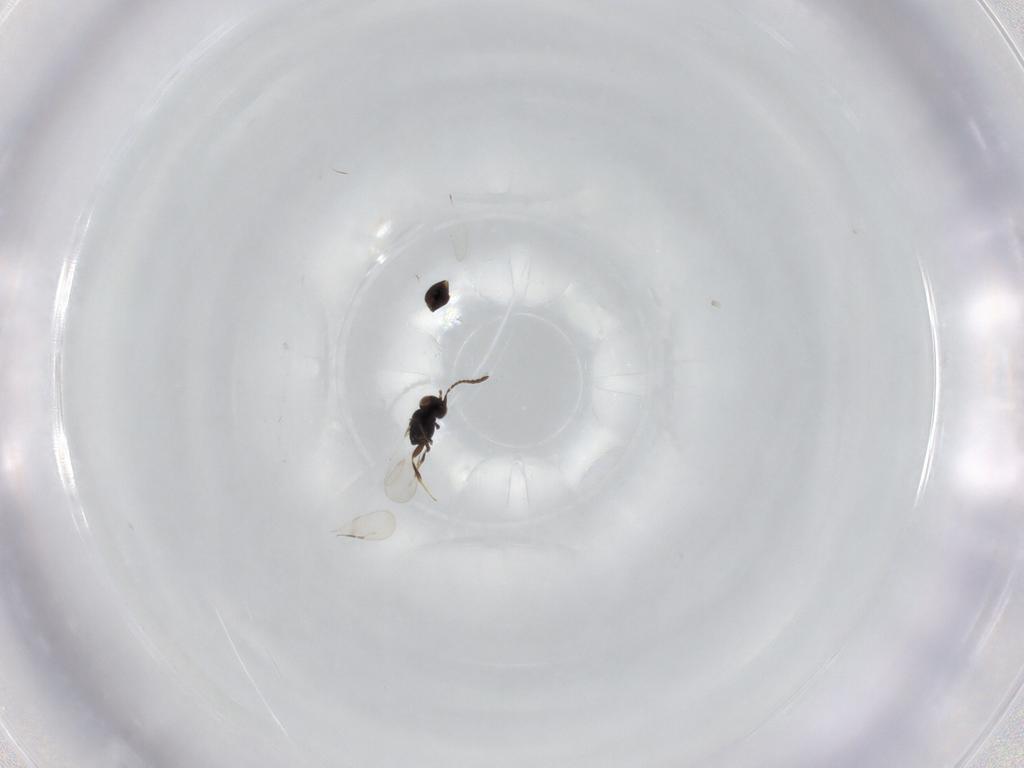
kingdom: Animalia
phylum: Arthropoda
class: Insecta
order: Hymenoptera
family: Ichneumonidae
